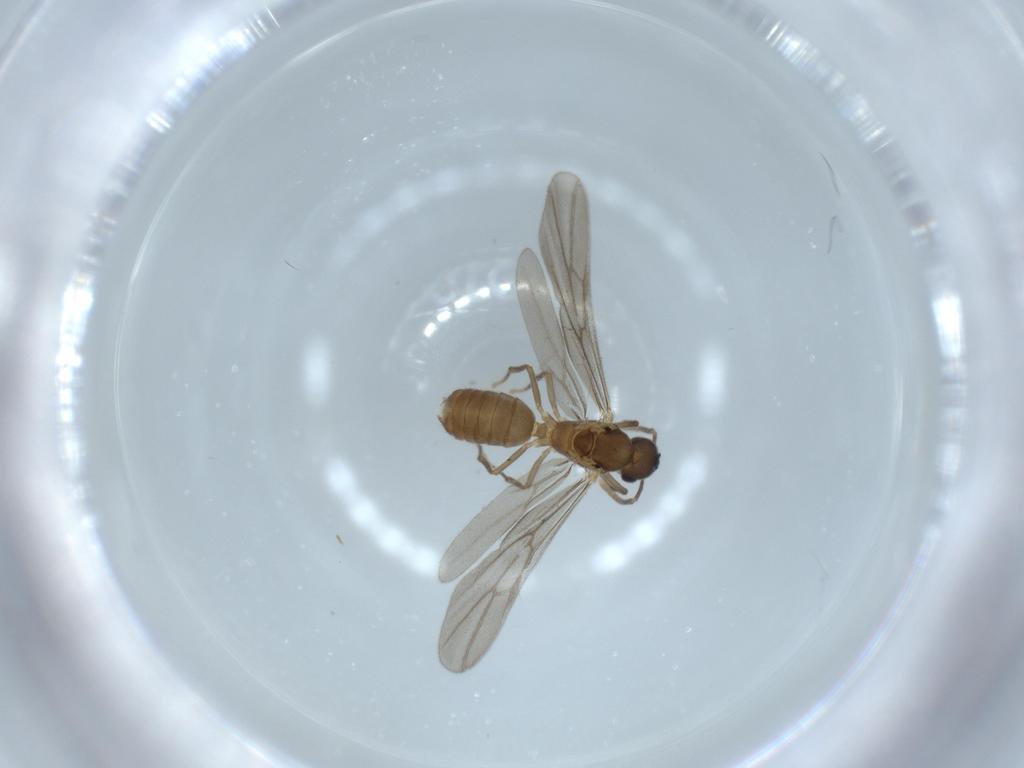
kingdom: Animalia
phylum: Arthropoda
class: Insecta
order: Hymenoptera
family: Formicidae
